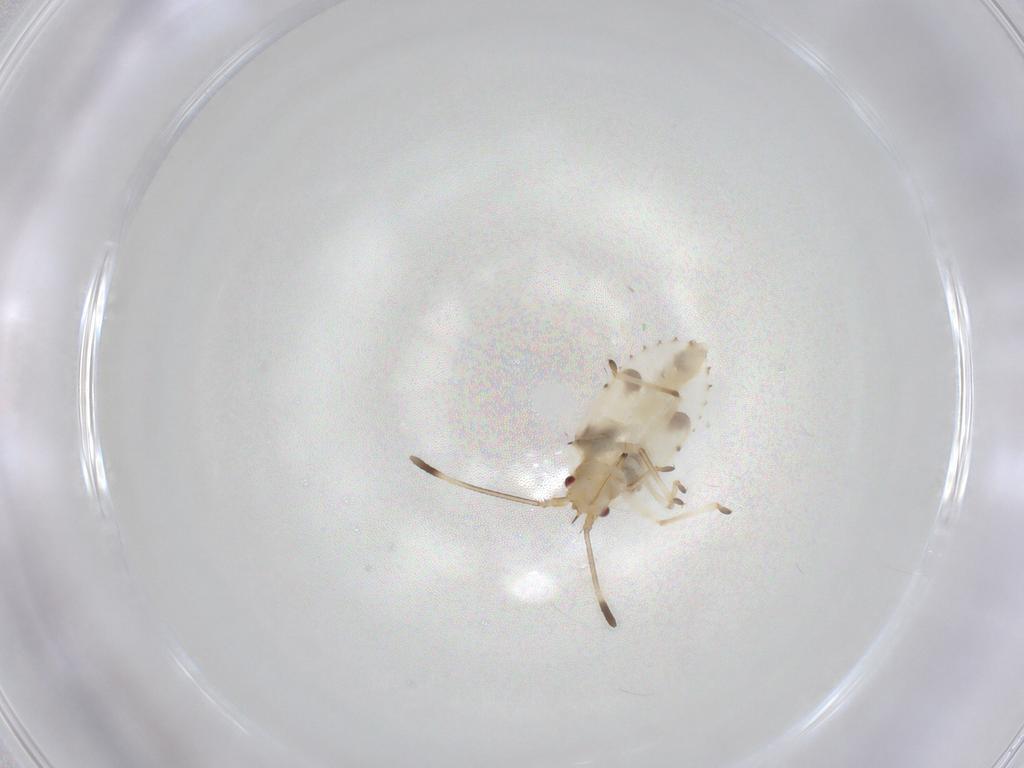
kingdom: Animalia
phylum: Arthropoda
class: Insecta
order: Hemiptera
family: Tingidae
